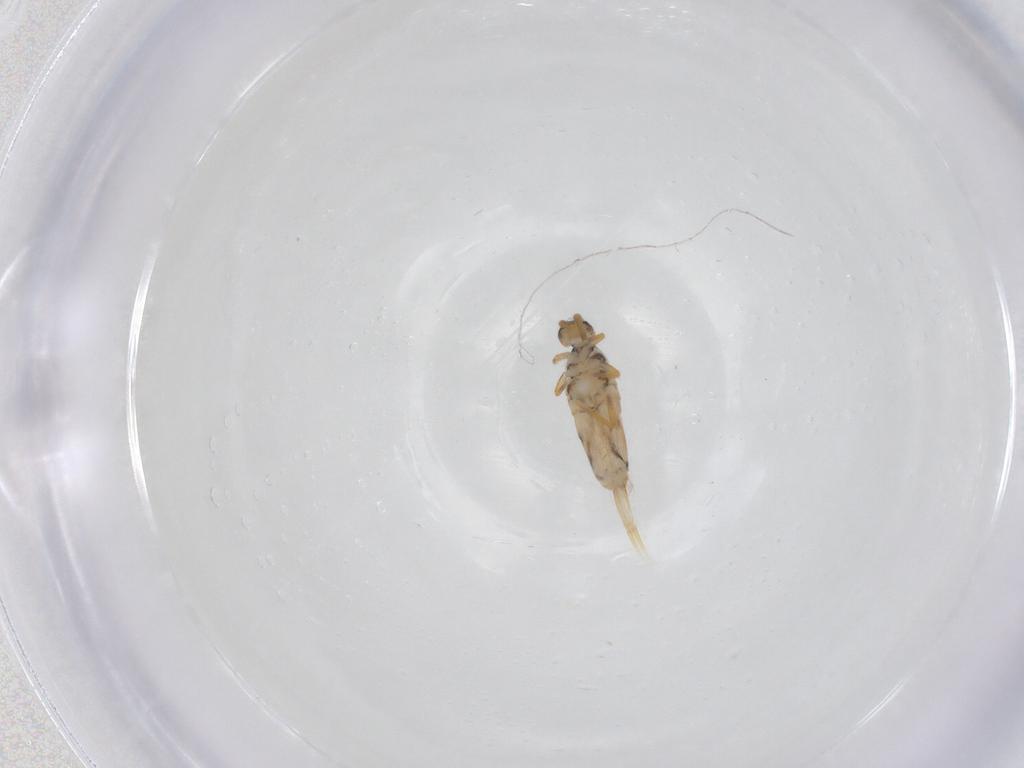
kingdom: Animalia
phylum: Arthropoda
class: Collembola
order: Entomobryomorpha
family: Entomobryidae
